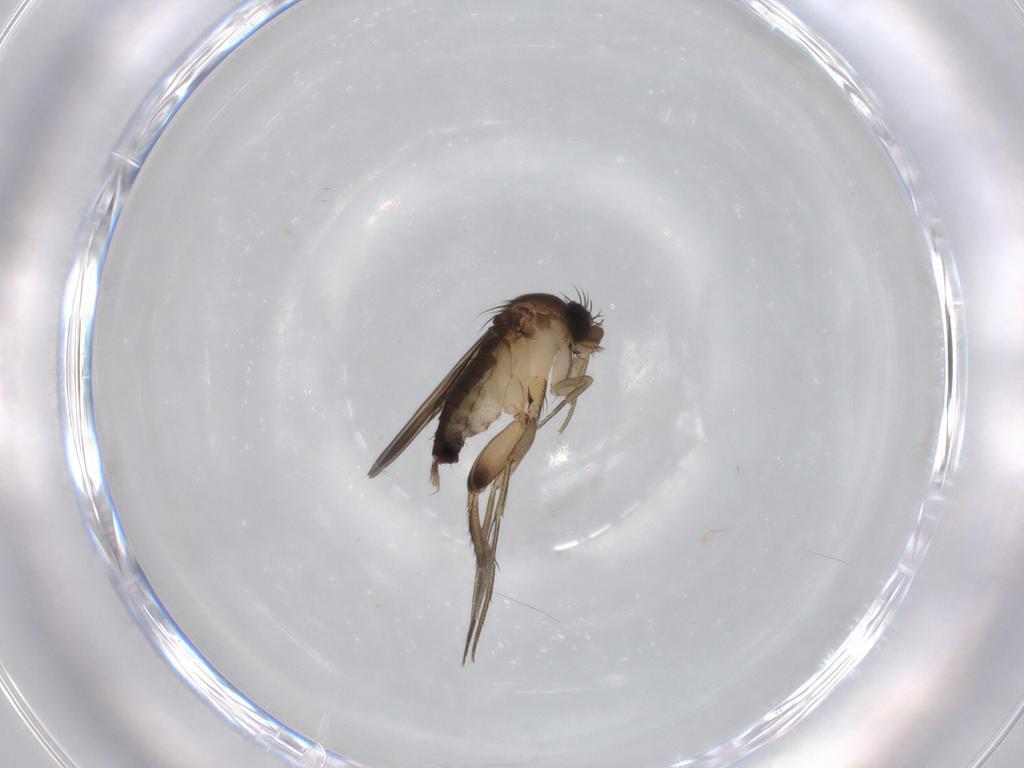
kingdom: Animalia
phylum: Arthropoda
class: Insecta
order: Diptera
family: Phoridae
